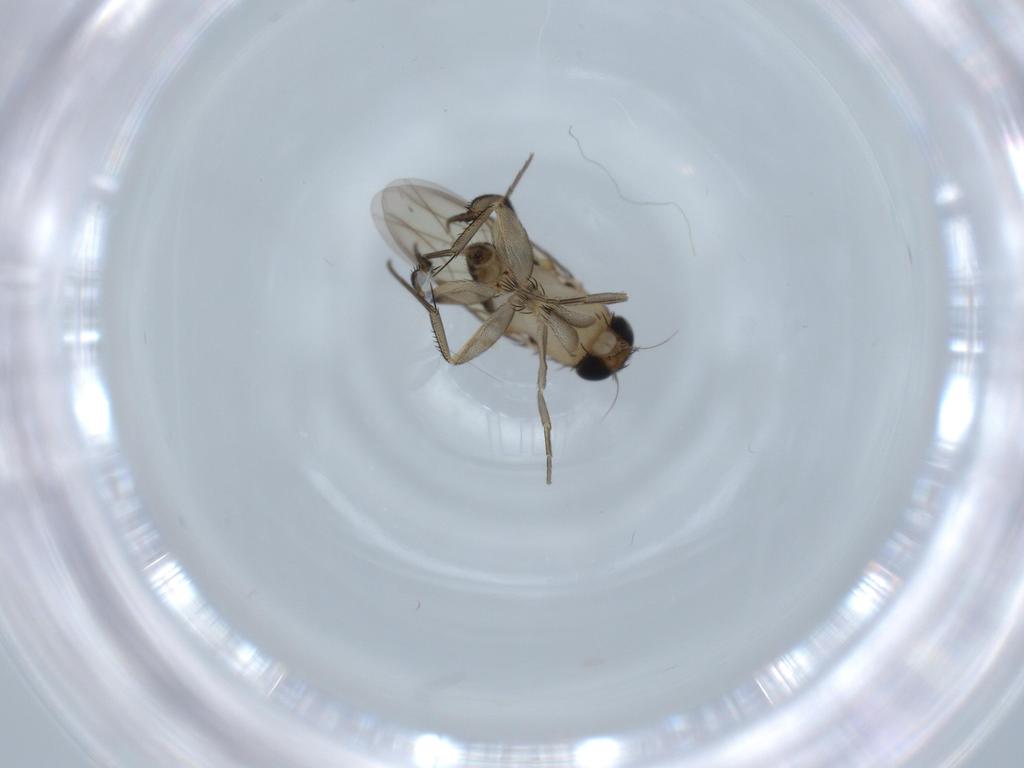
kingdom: Animalia
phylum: Arthropoda
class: Insecta
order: Diptera
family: Phoridae
